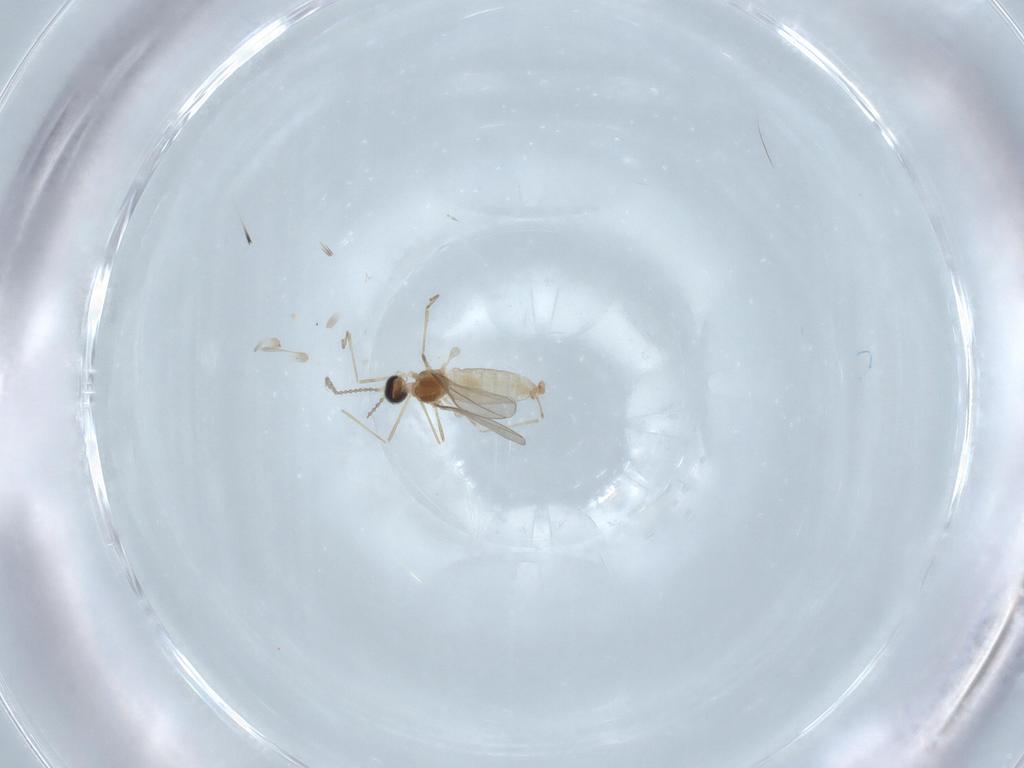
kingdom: Animalia
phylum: Arthropoda
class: Insecta
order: Diptera
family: Cecidomyiidae
